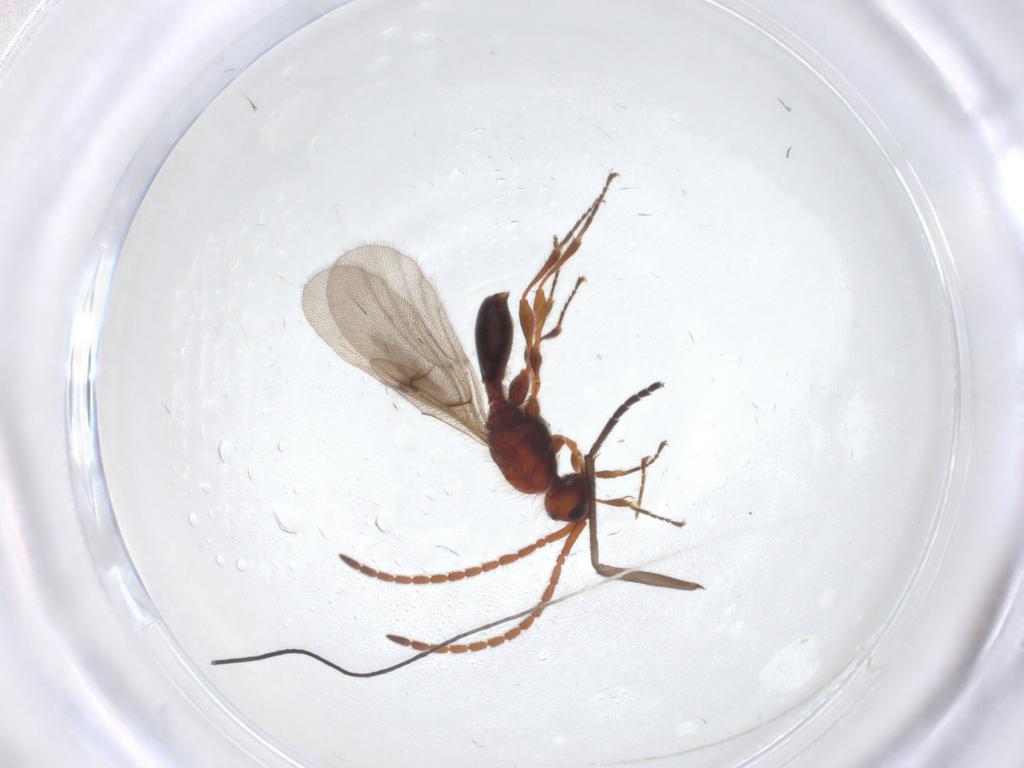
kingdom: Animalia
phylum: Arthropoda
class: Insecta
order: Hymenoptera
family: Diapriidae
